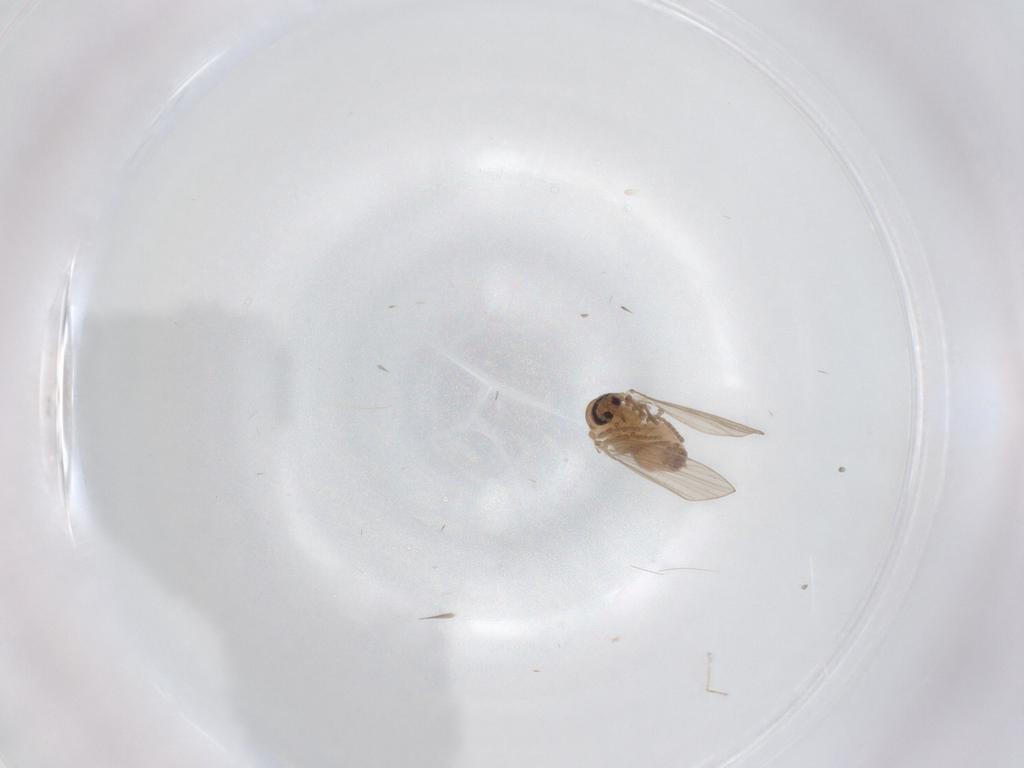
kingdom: Animalia
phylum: Arthropoda
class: Insecta
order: Diptera
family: Psychodidae
